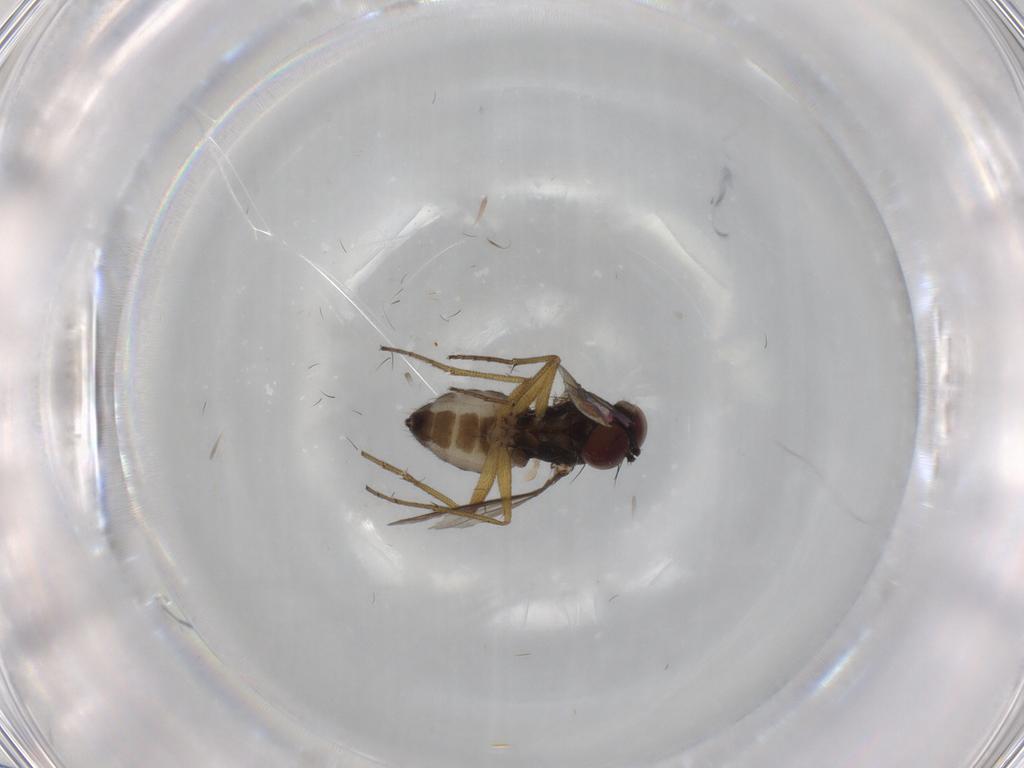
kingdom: Animalia
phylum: Arthropoda
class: Insecta
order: Diptera
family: Dolichopodidae
